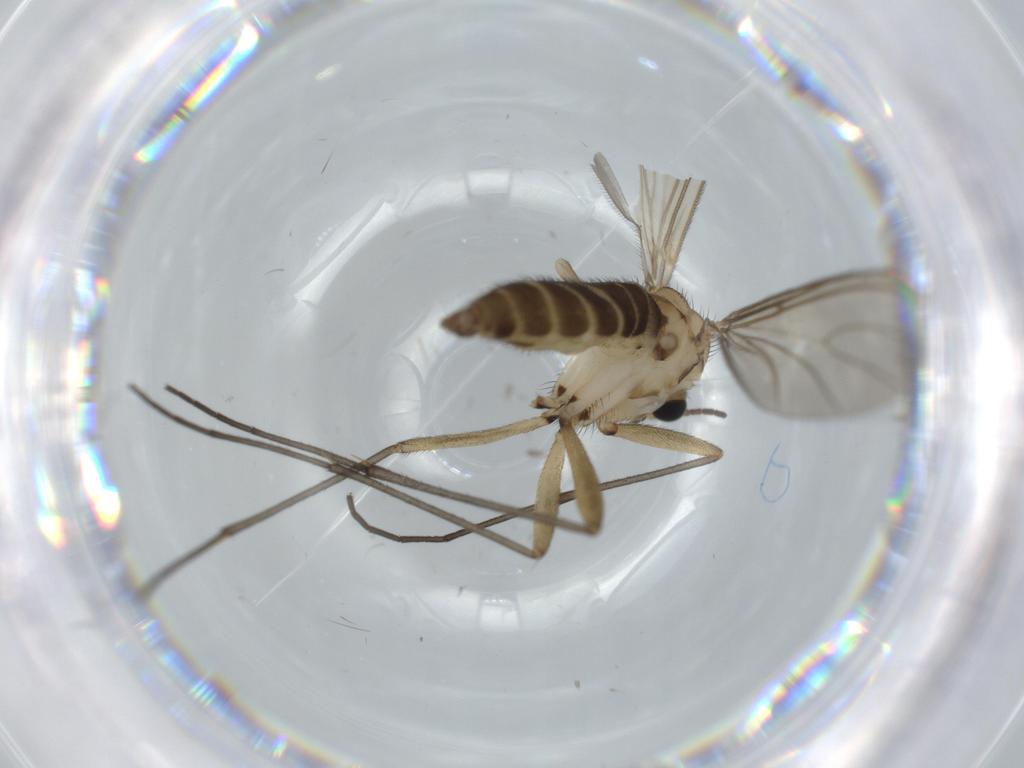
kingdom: Animalia
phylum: Arthropoda
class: Insecta
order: Diptera
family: Sciaridae
